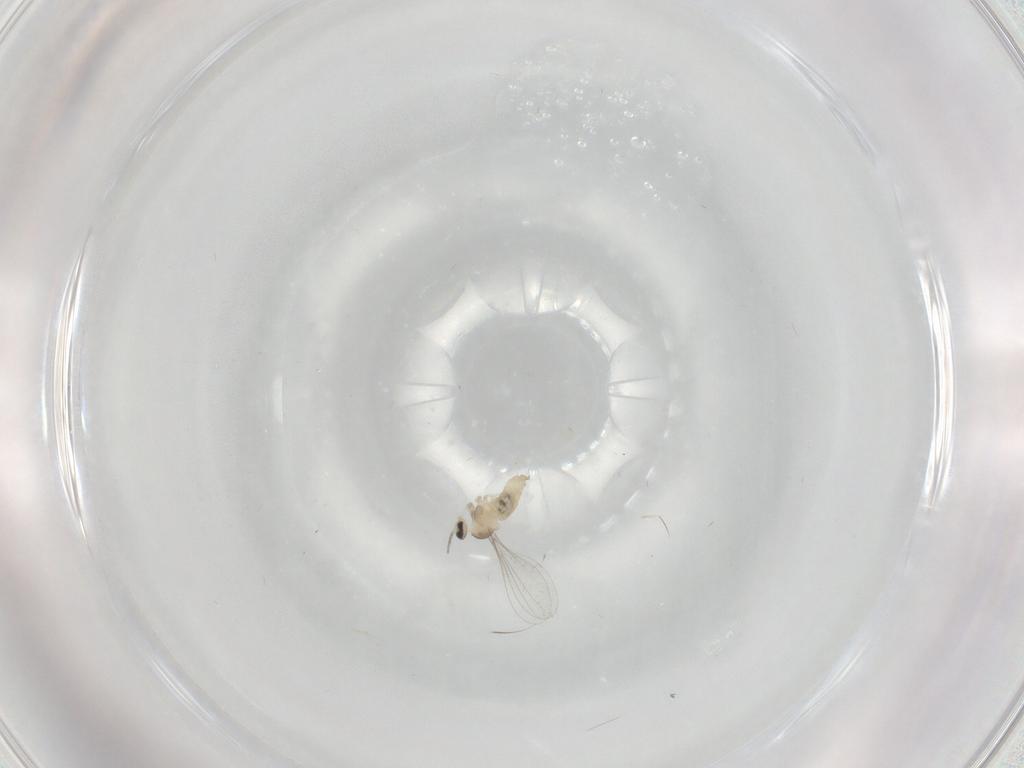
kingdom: Animalia
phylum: Arthropoda
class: Insecta
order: Diptera
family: Cecidomyiidae
